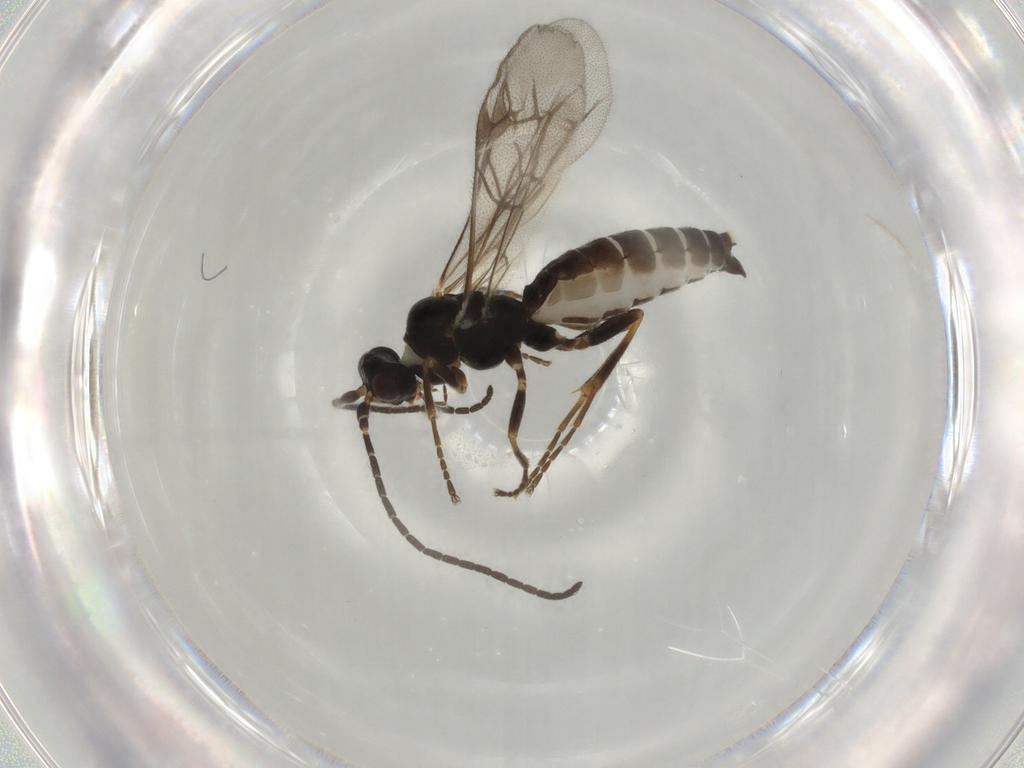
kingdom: Animalia
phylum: Arthropoda
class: Insecta
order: Hymenoptera
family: Ichneumonidae
